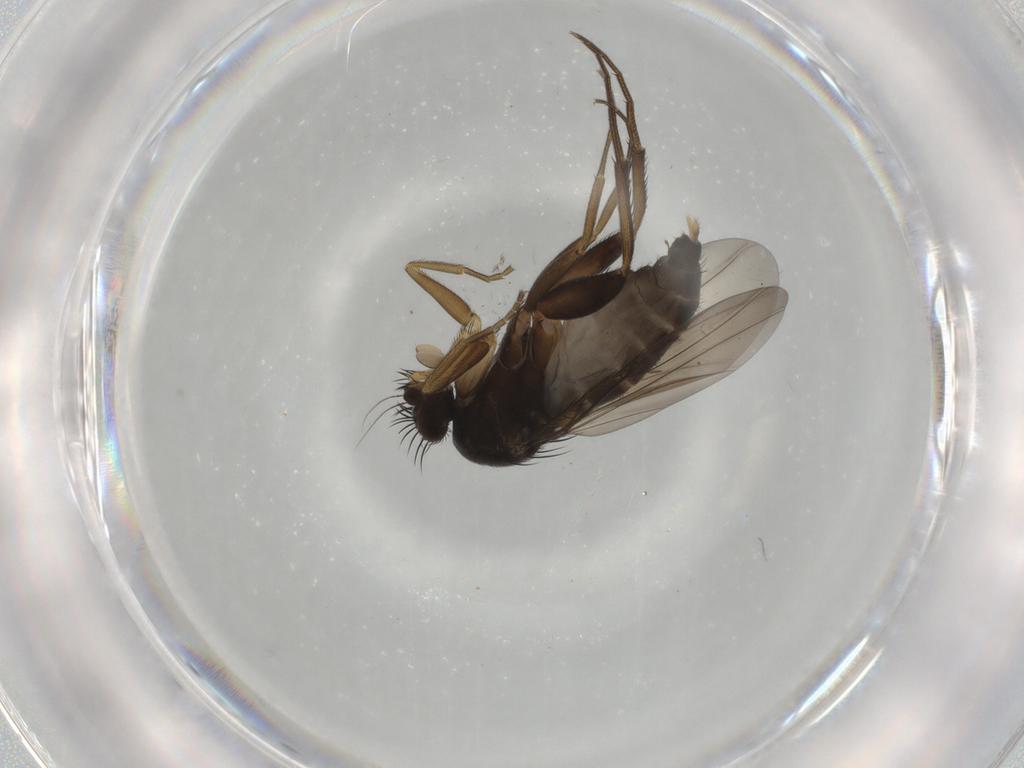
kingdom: Animalia
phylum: Arthropoda
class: Insecta
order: Diptera
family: Phoridae
